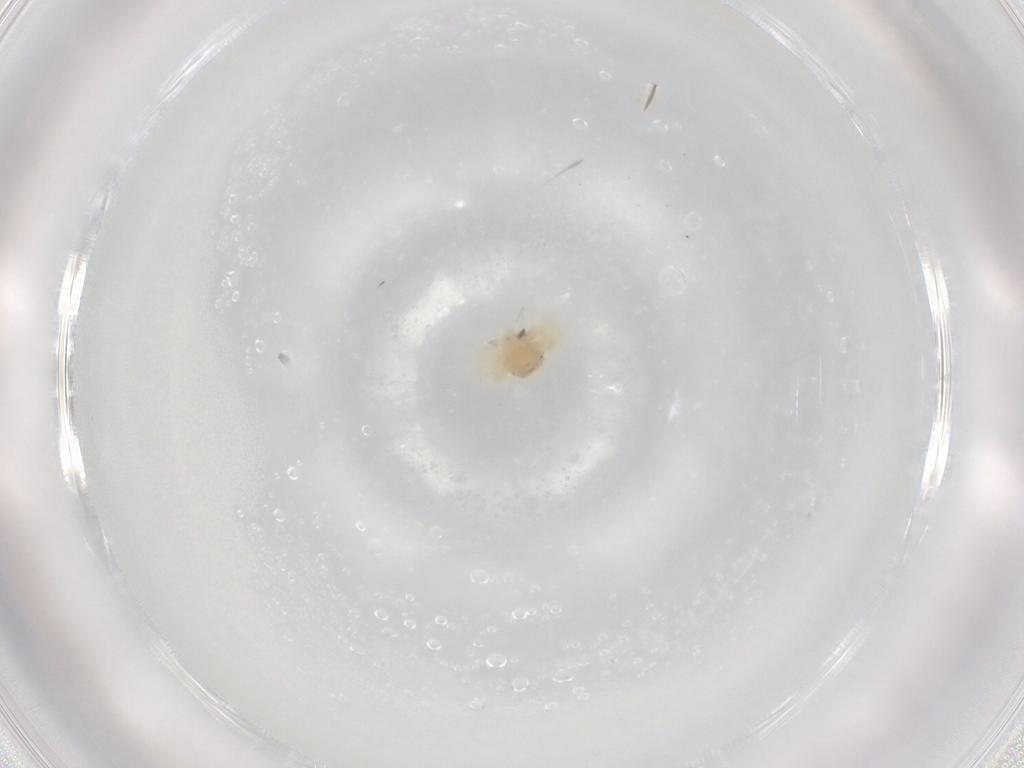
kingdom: Animalia
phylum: Arthropoda
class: Arachnida
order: Trombidiformes
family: Anystidae
